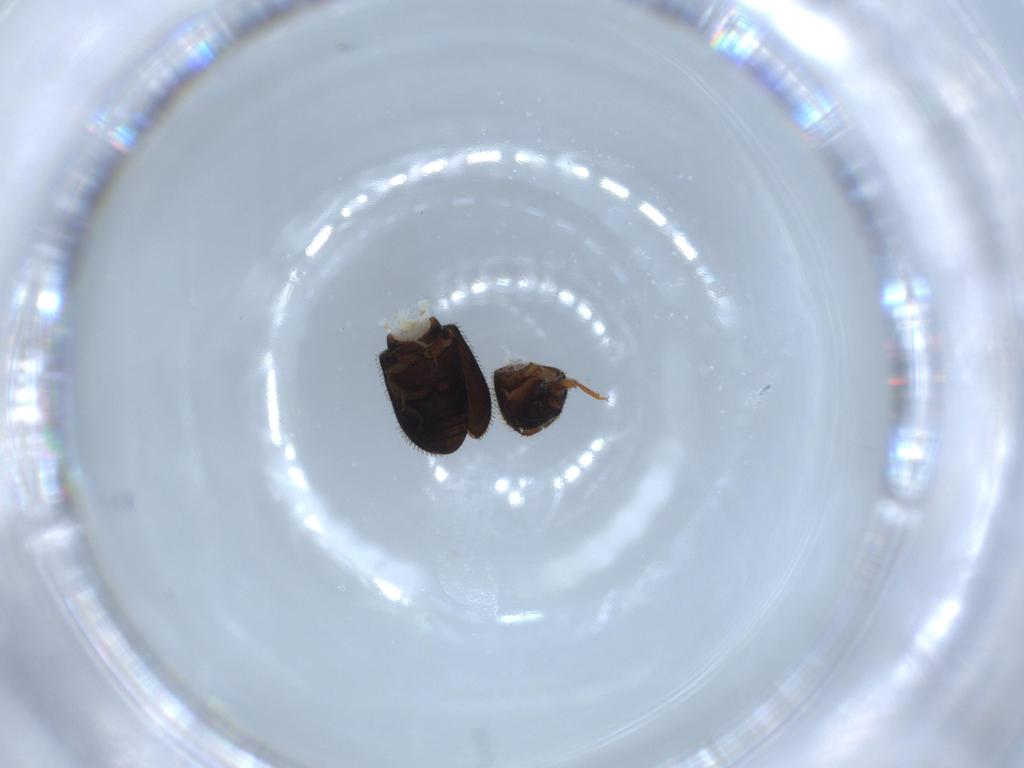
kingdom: Animalia
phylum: Arthropoda
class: Insecta
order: Coleoptera
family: Curculionidae
